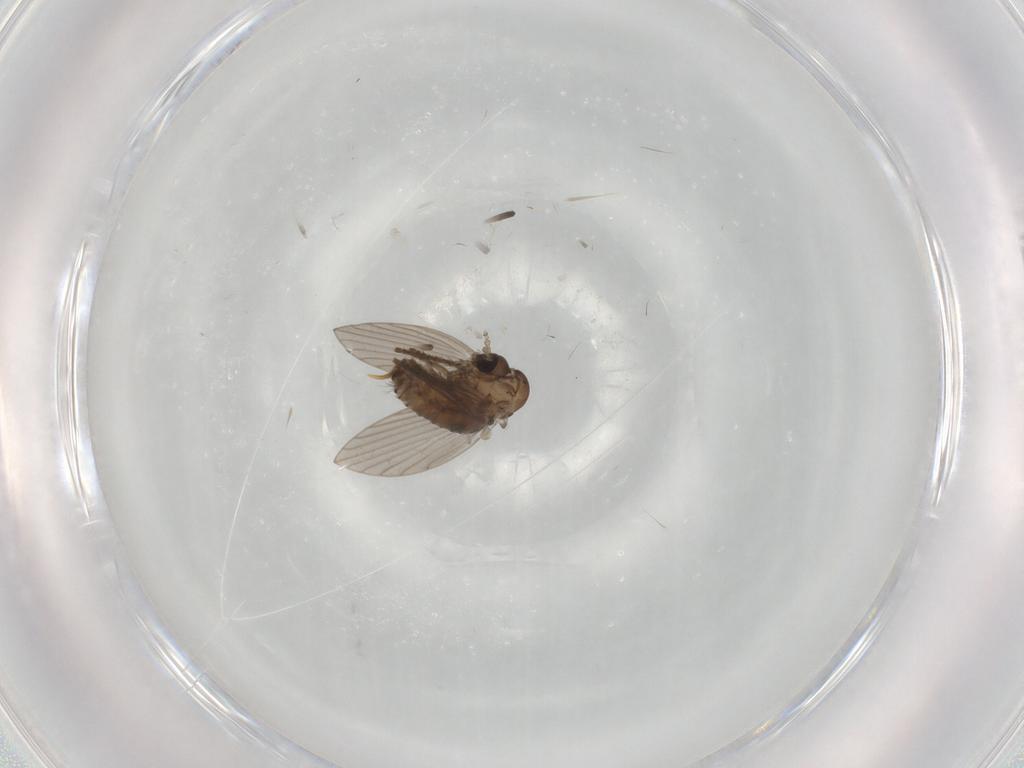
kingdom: Animalia
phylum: Arthropoda
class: Insecta
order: Diptera
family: Psychodidae
